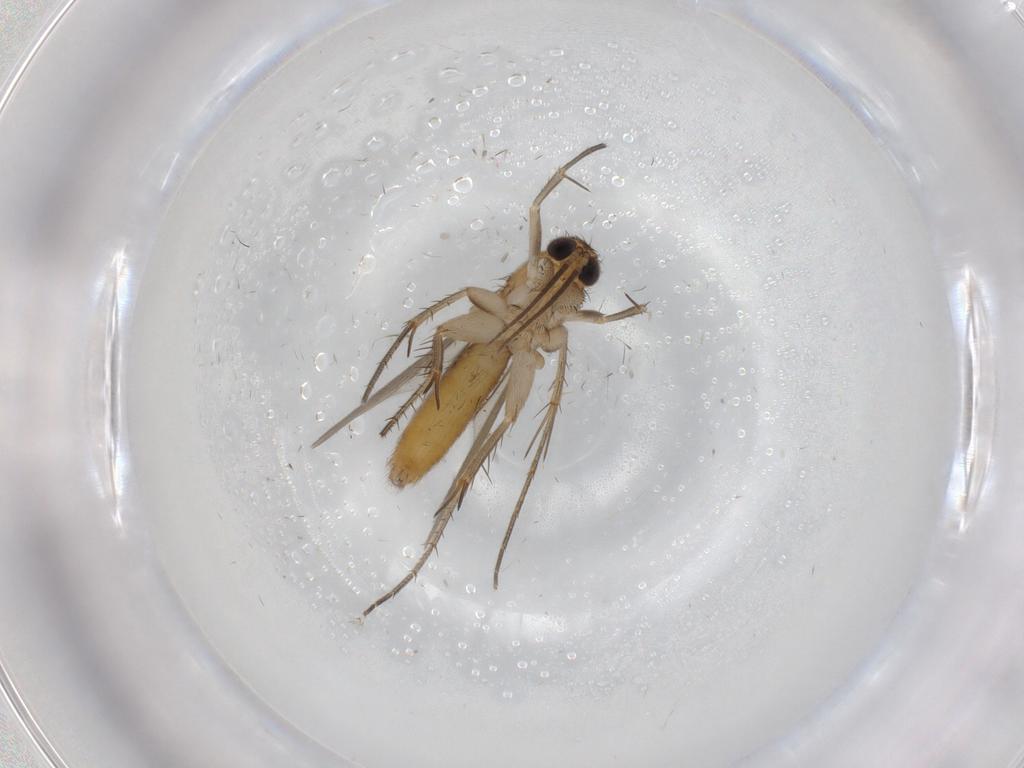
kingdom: Animalia
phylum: Arthropoda
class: Insecta
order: Diptera
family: Mycetophilidae
